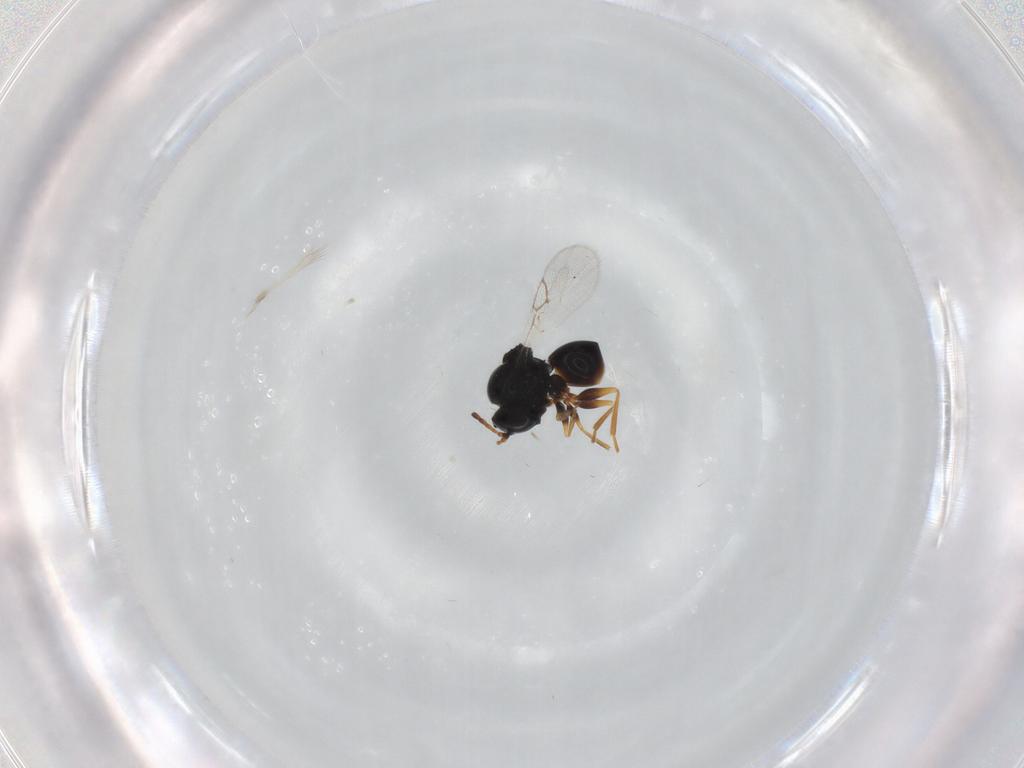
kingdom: Animalia
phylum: Arthropoda
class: Insecta
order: Hymenoptera
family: Figitidae
